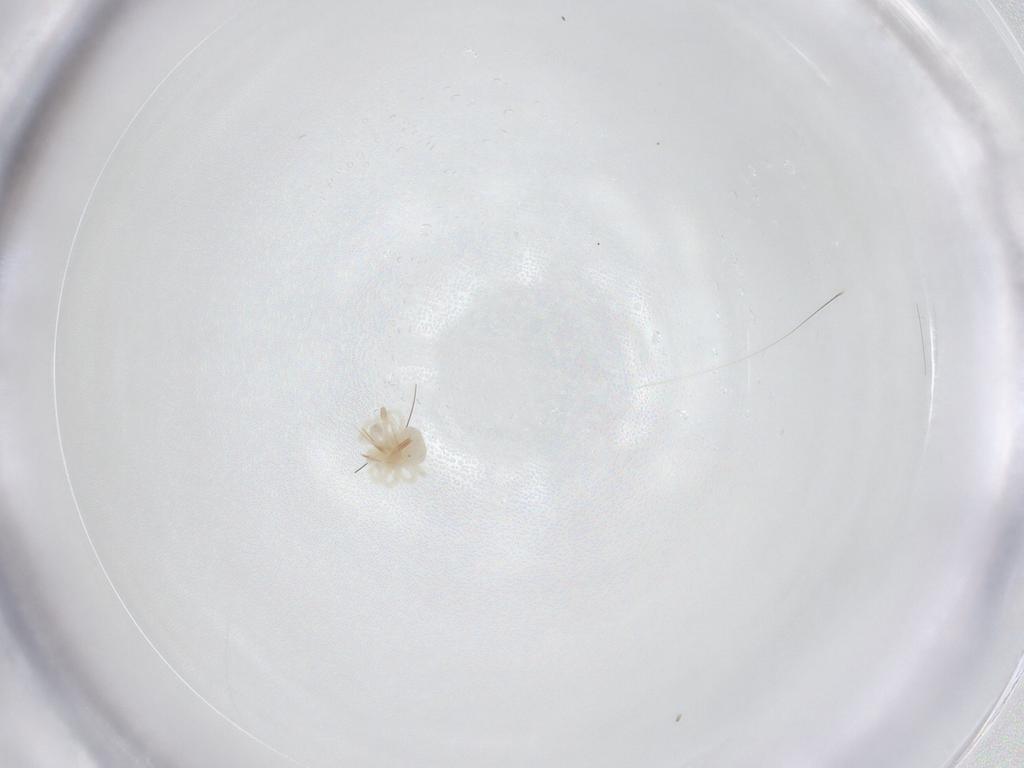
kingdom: Animalia
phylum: Arthropoda
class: Arachnida
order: Trombidiformes
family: Anystidae
